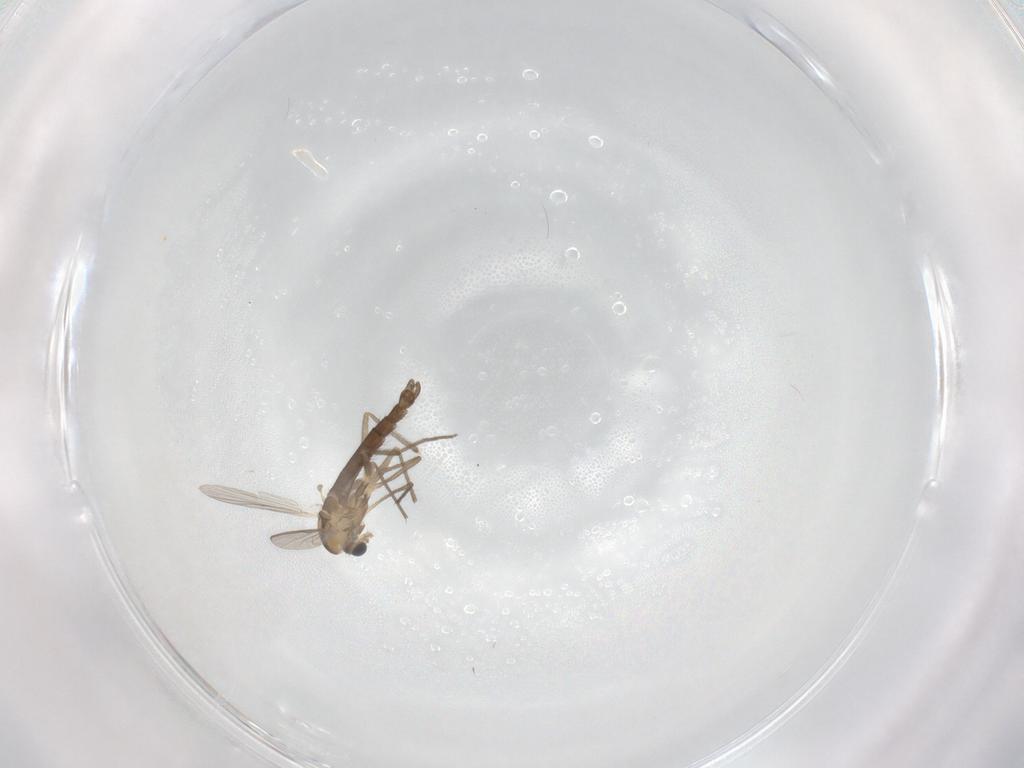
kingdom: Animalia
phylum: Arthropoda
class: Insecta
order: Diptera
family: Chironomidae
